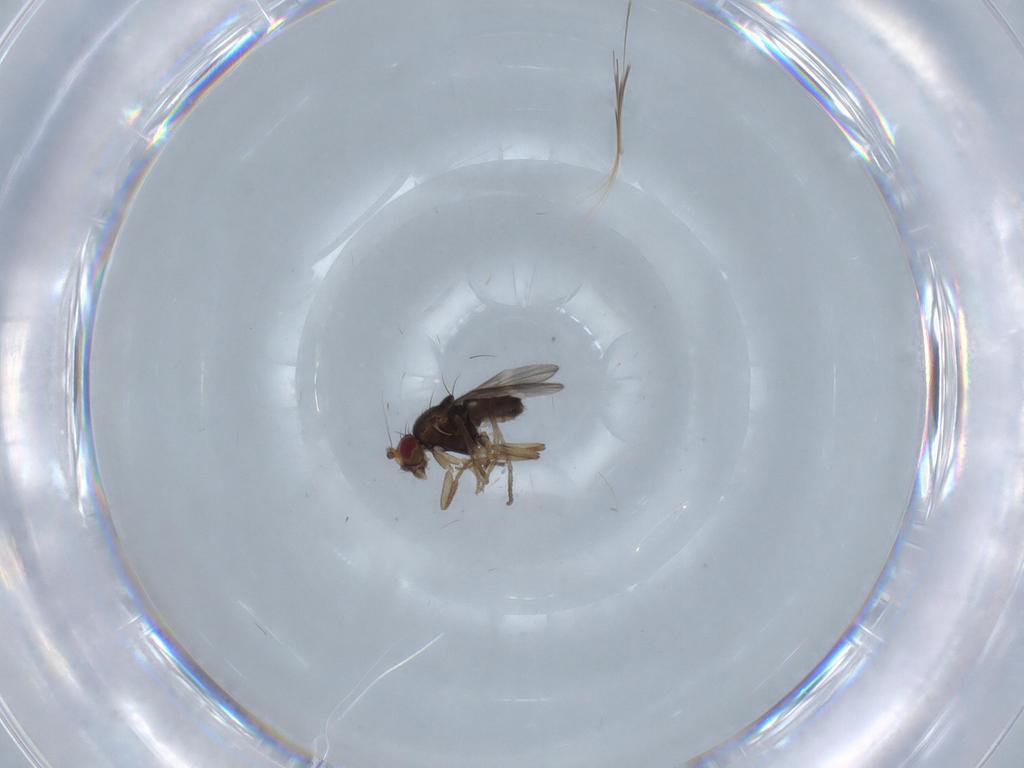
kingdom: Animalia
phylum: Arthropoda
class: Insecta
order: Diptera
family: Sphaeroceridae
